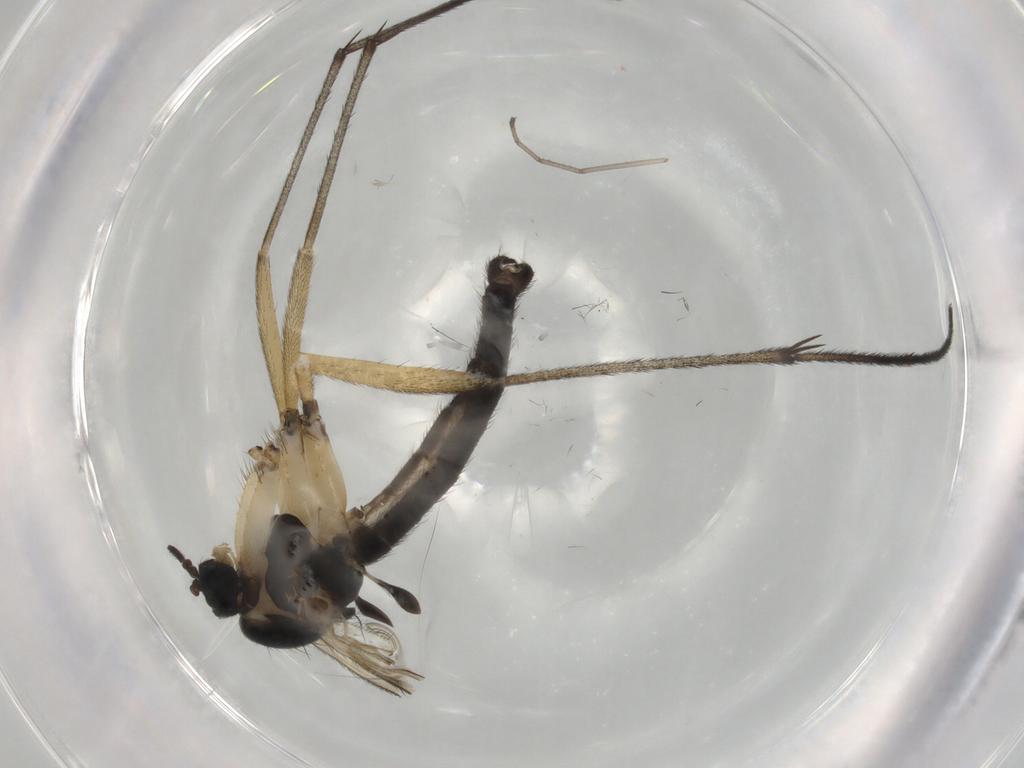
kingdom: Animalia
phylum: Arthropoda
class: Insecta
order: Diptera
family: Sciaridae
